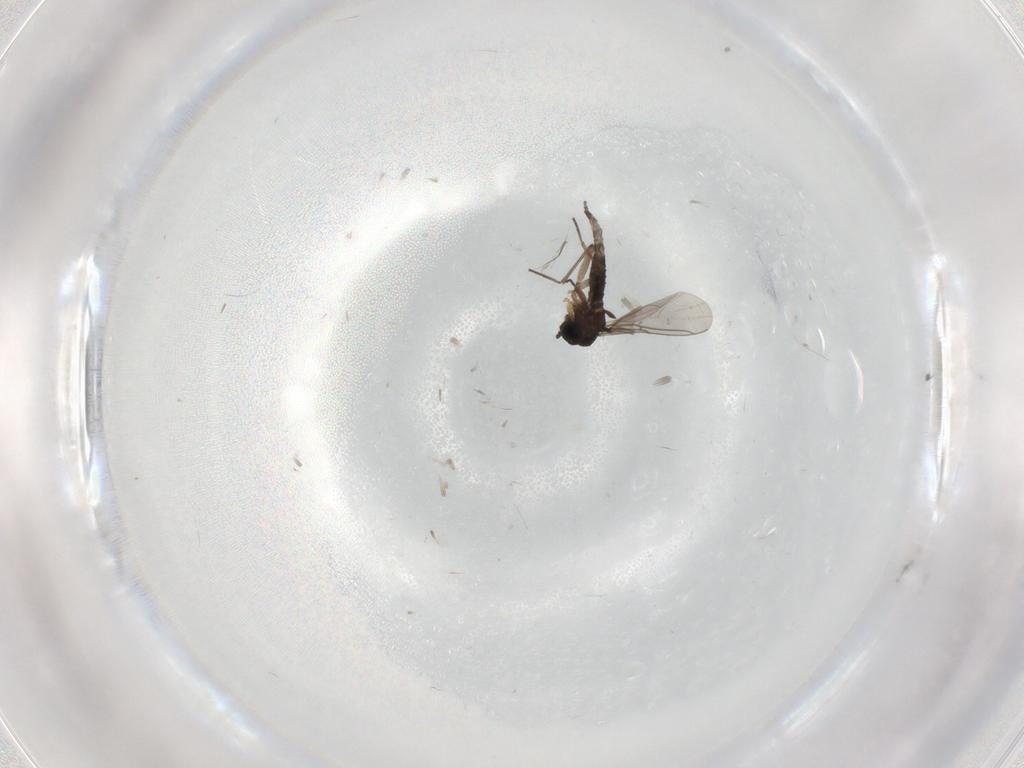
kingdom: Animalia
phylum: Arthropoda
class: Insecta
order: Diptera
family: Sciaridae
